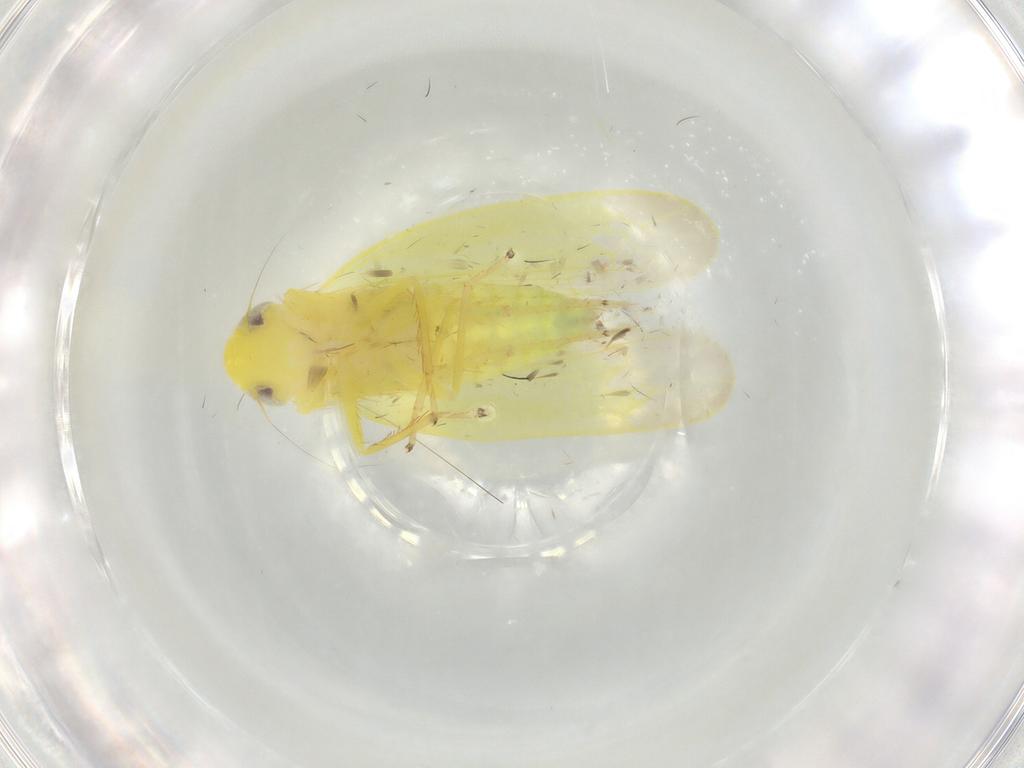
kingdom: Animalia
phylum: Arthropoda
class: Insecta
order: Hemiptera
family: Cicadellidae
